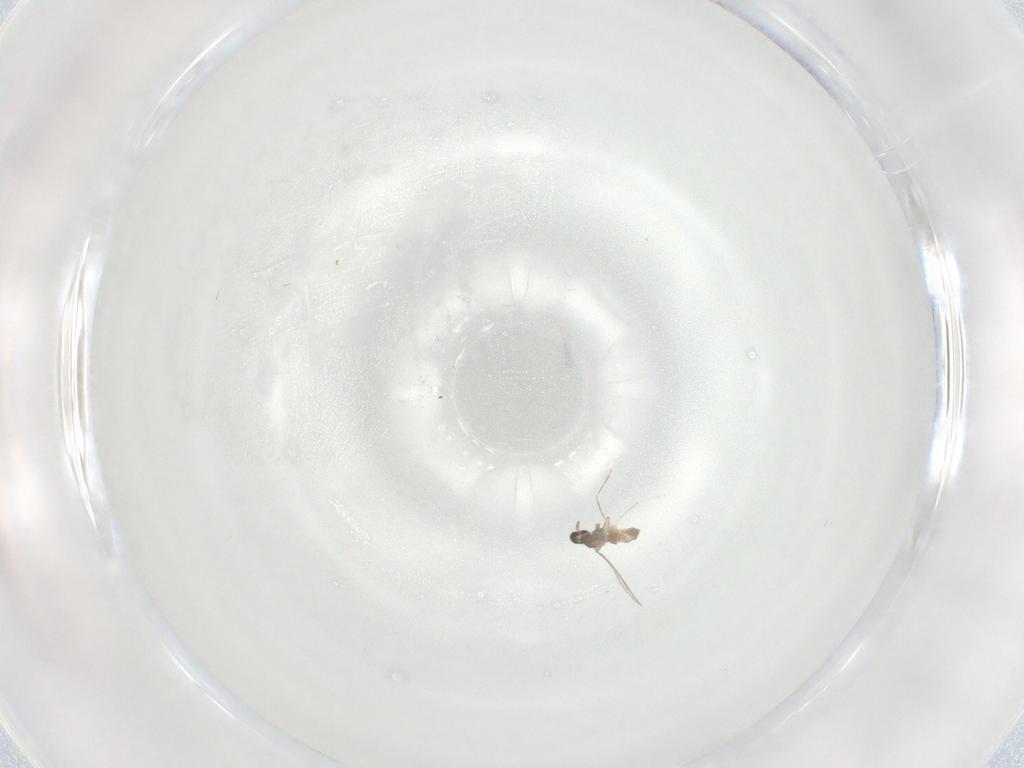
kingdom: Animalia
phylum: Arthropoda
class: Insecta
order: Diptera
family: Cecidomyiidae
